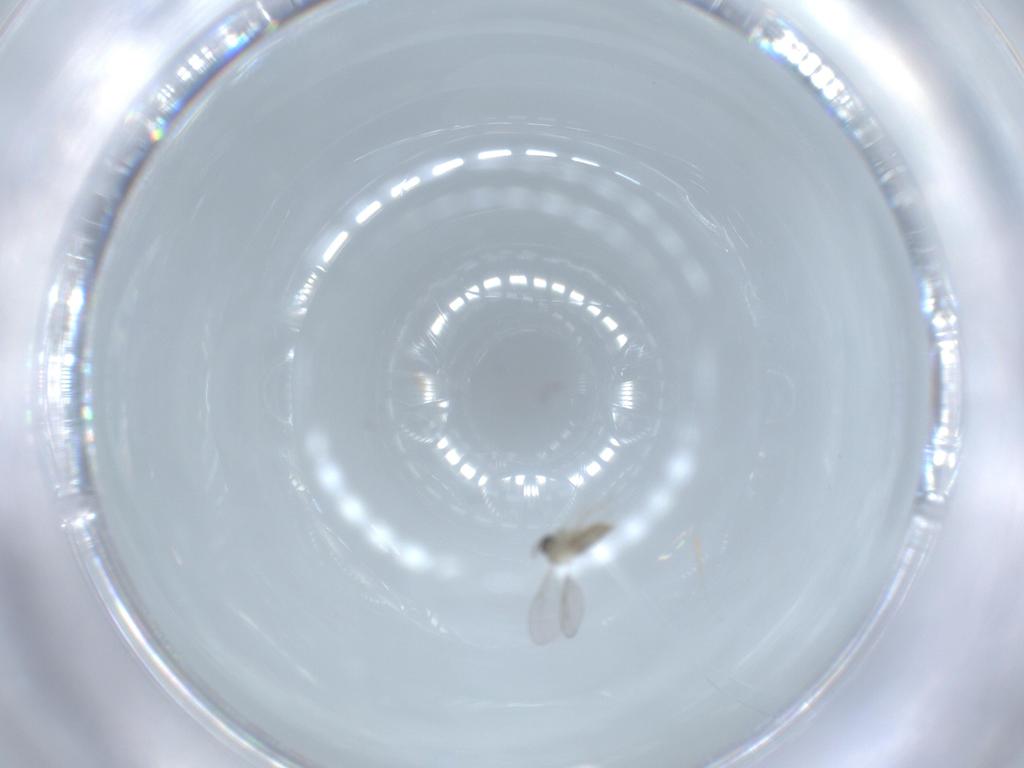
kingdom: Animalia
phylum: Arthropoda
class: Insecta
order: Diptera
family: Cecidomyiidae
